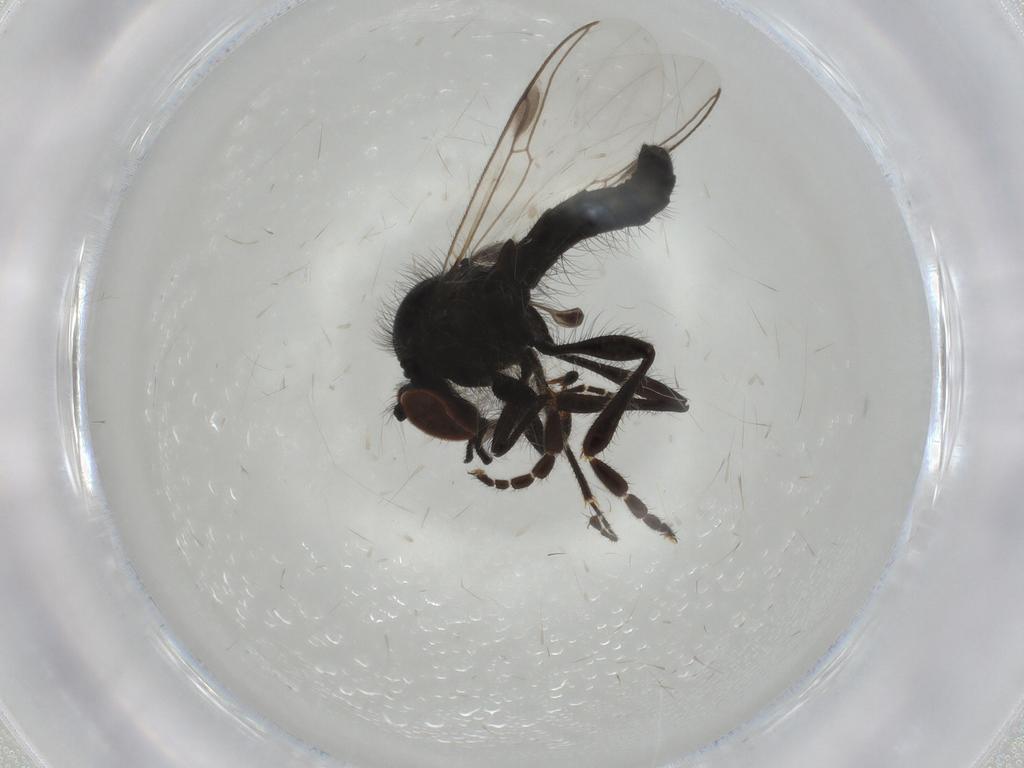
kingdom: Animalia
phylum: Arthropoda
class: Insecta
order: Diptera
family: Bibionidae
